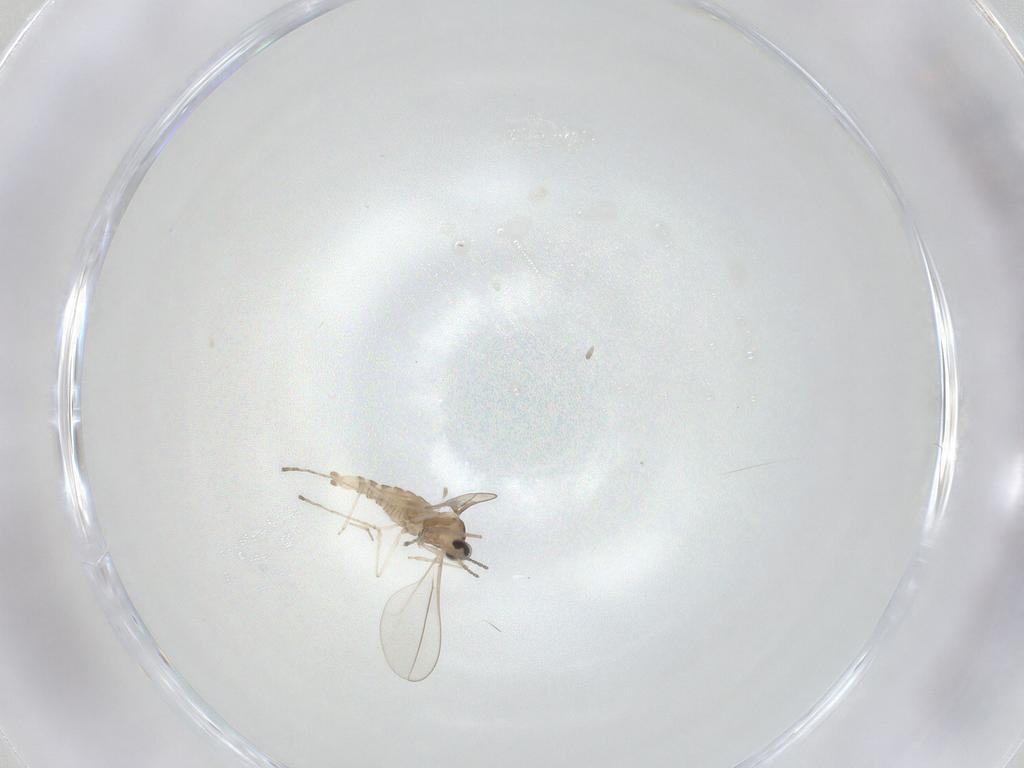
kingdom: Animalia
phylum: Arthropoda
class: Insecta
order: Diptera
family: Cecidomyiidae
